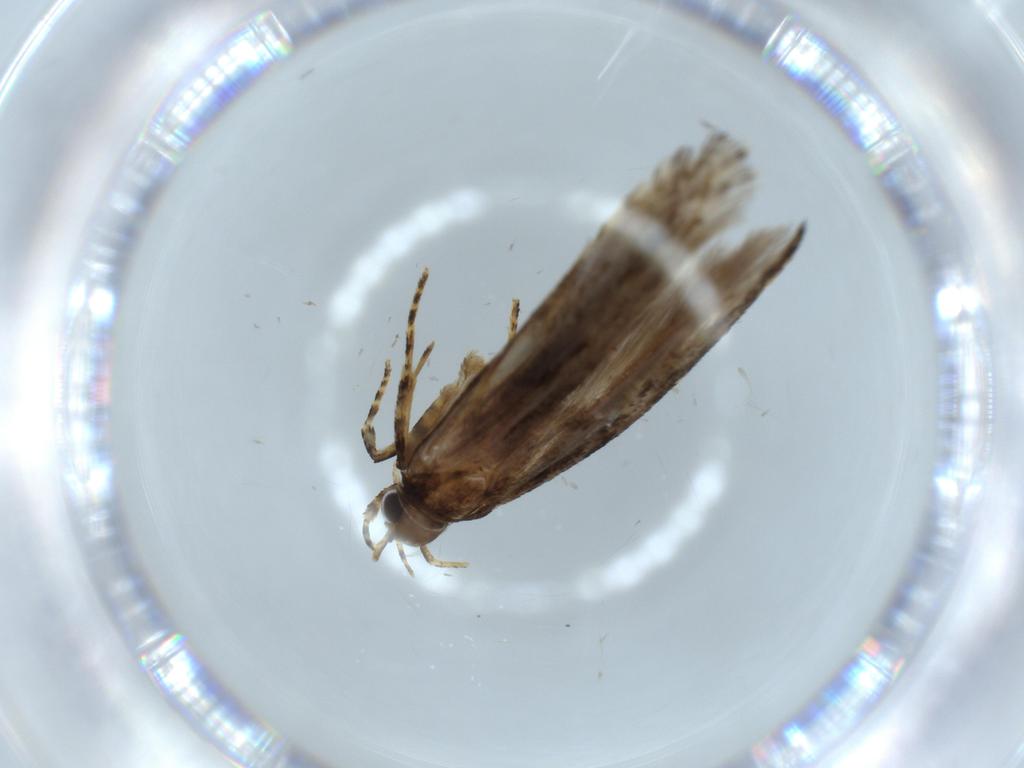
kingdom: Animalia
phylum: Arthropoda
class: Insecta
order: Lepidoptera
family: Gelechiidae
